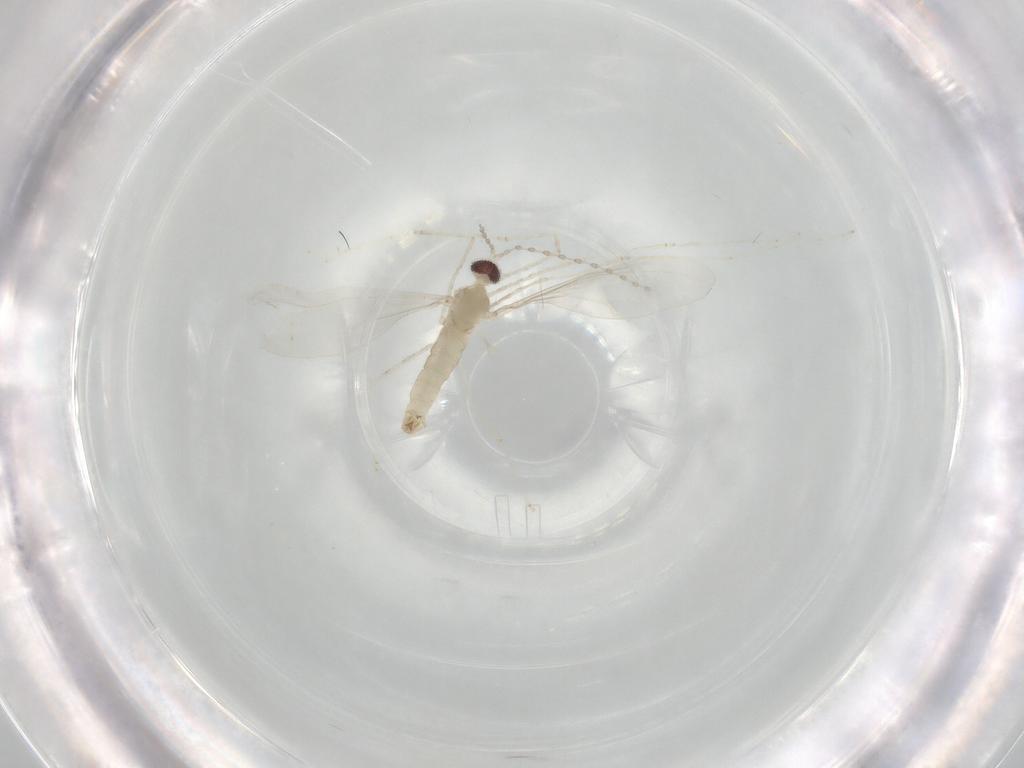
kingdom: Animalia
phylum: Arthropoda
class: Insecta
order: Diptera
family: Cecidomyiidae
